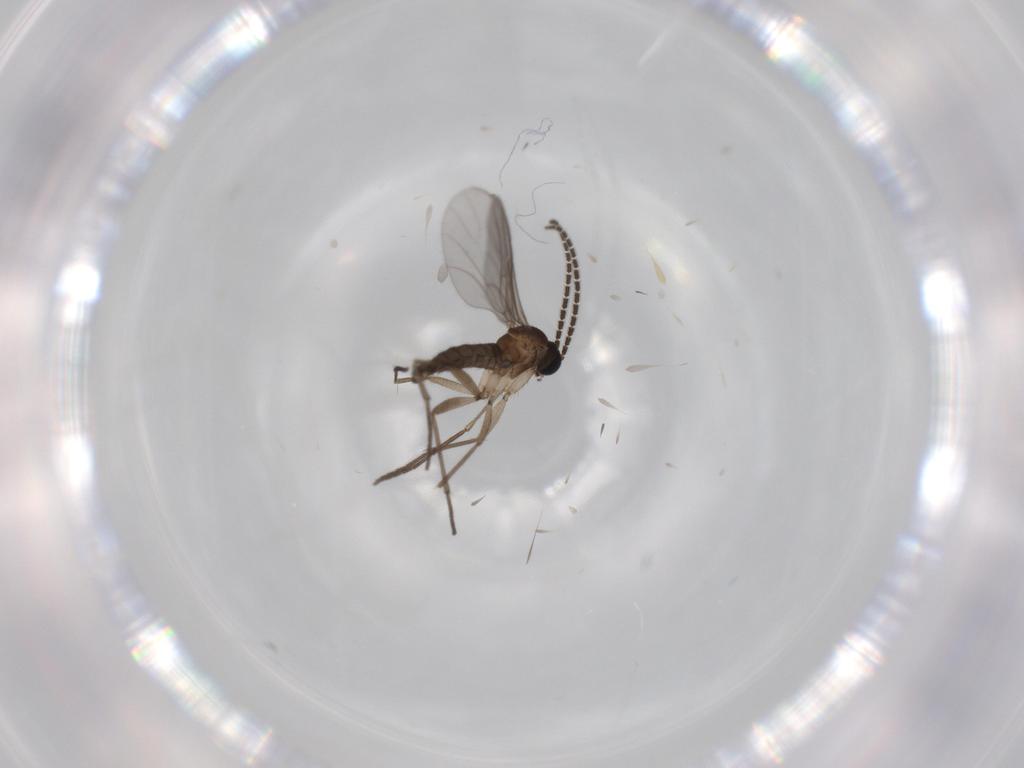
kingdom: Animalia
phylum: Arthropoda
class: Insecta
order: Diptera
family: Sciaridae
